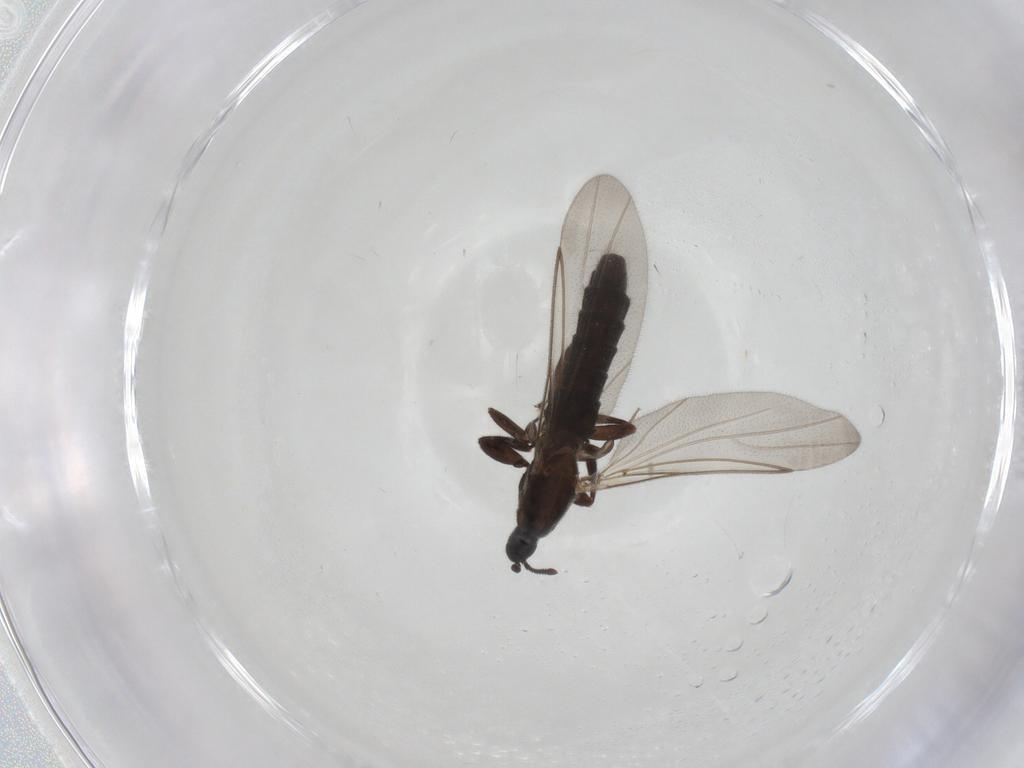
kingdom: Animalia
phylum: Arthropoda
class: Insecta
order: Diptera
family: Scatopsidae
